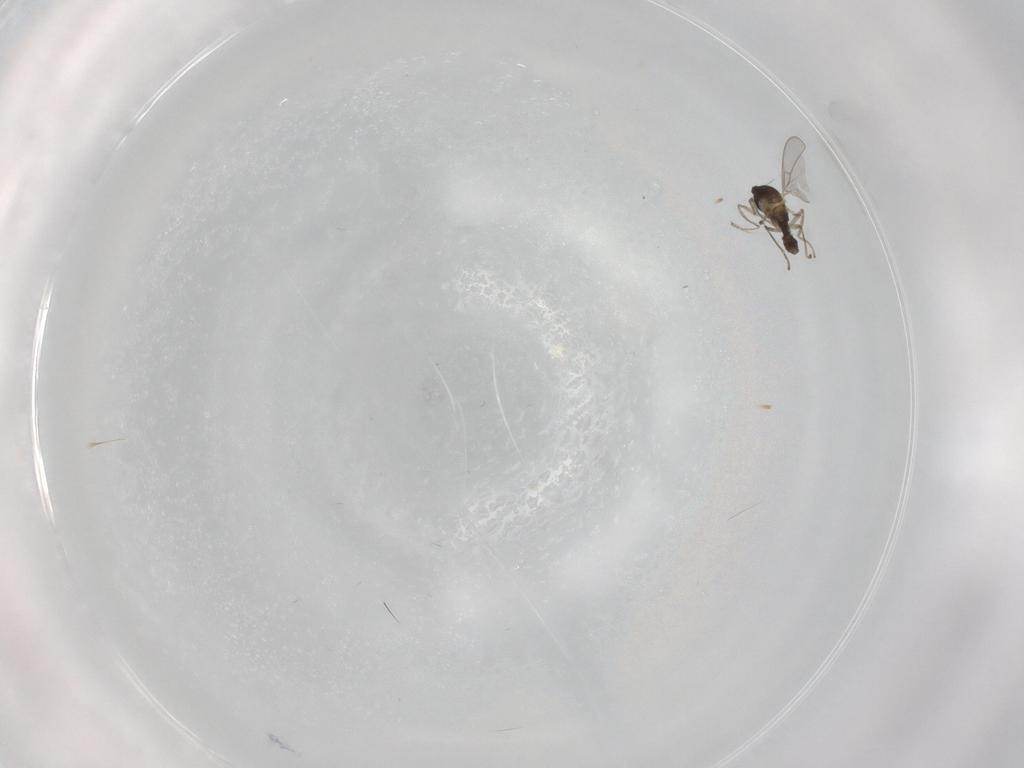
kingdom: Animalia
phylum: Arthropoda
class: Insecta
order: Diptera
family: Cecidomyiidae
